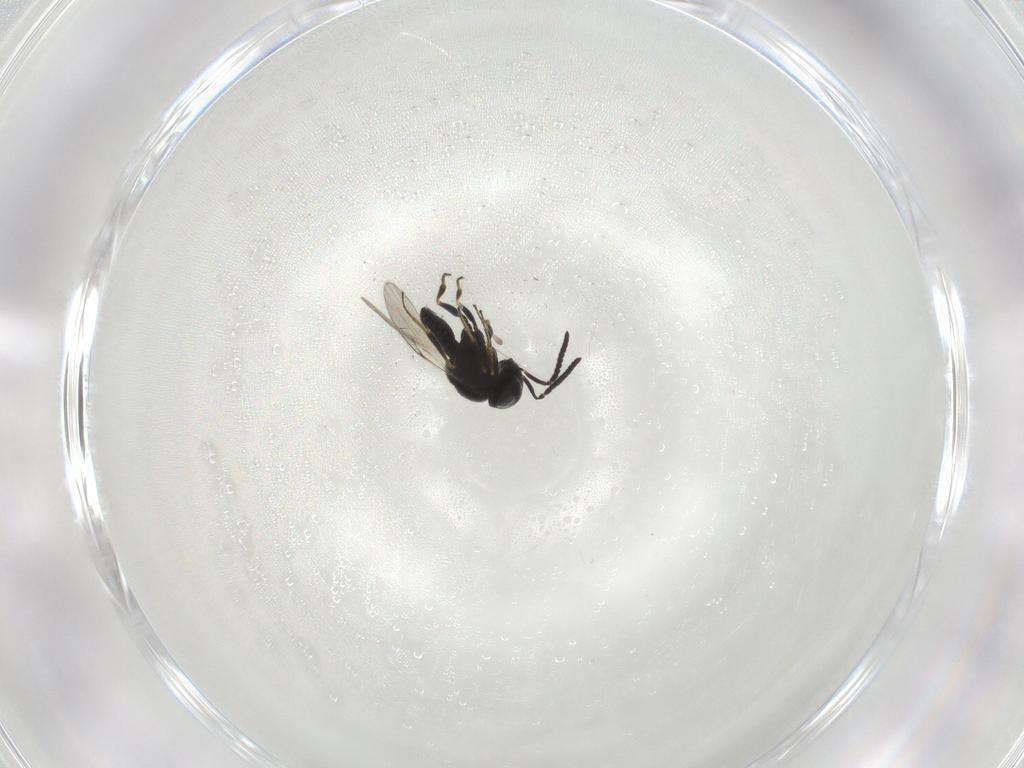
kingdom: Animalia
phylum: Arthropoda
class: Insecta
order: Hymenoptera
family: Scelionidae
